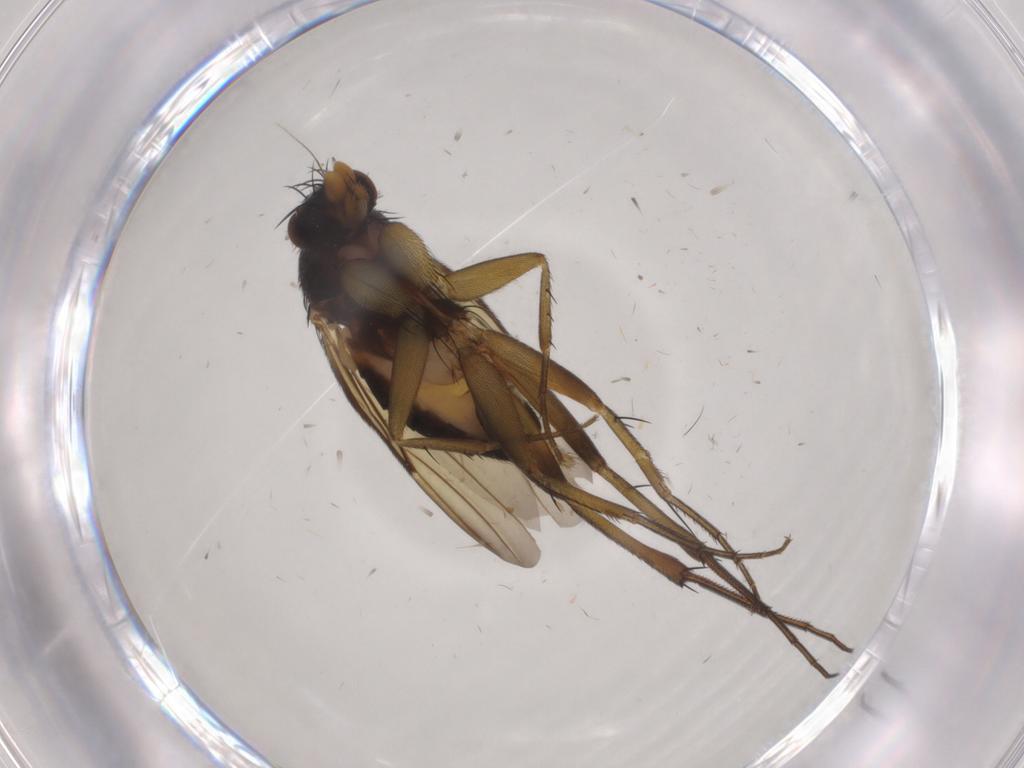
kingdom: Animalia
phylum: Arthropoda
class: Insecta
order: Diptera
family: Phoridae
